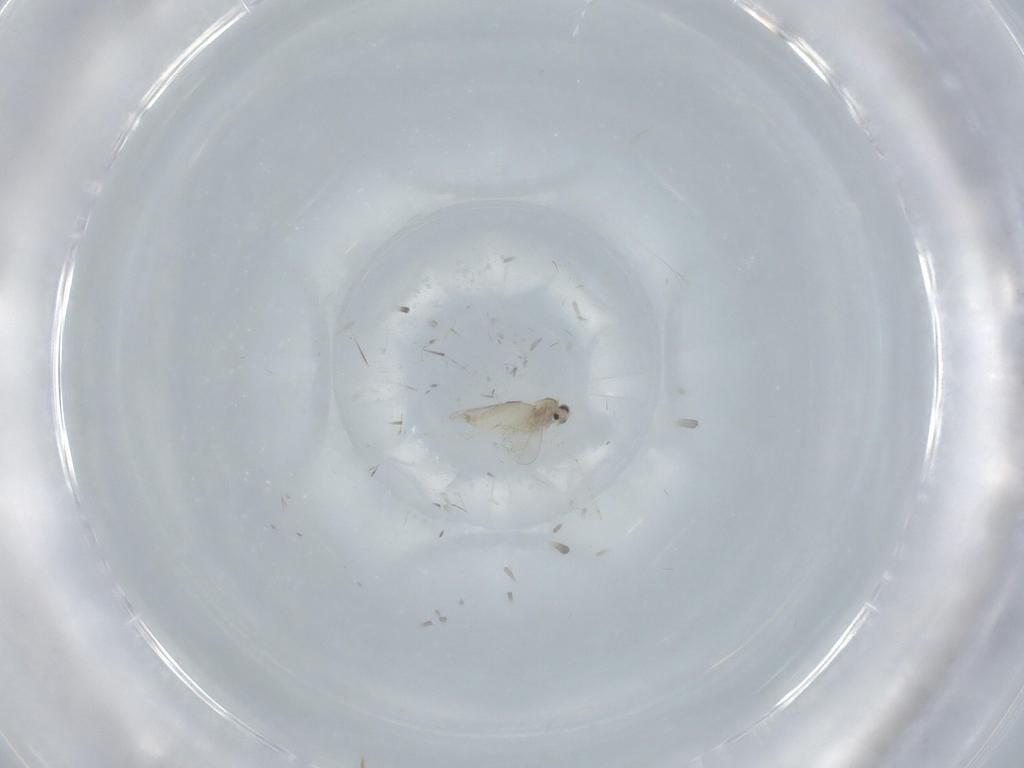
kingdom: Animalia
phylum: Arthropoda
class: Insecta
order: Diptera
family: Cecidomyiidae
